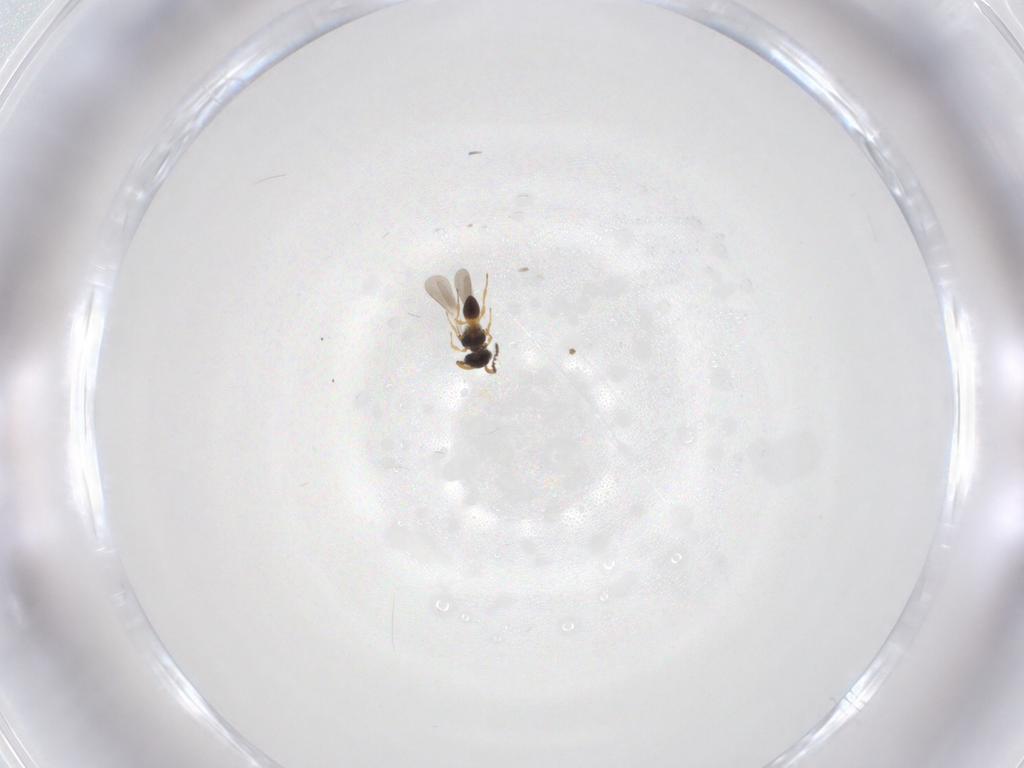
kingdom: Animalia
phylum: Arthropoda
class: Insecta
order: Hymenoptera
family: Platygastridae
